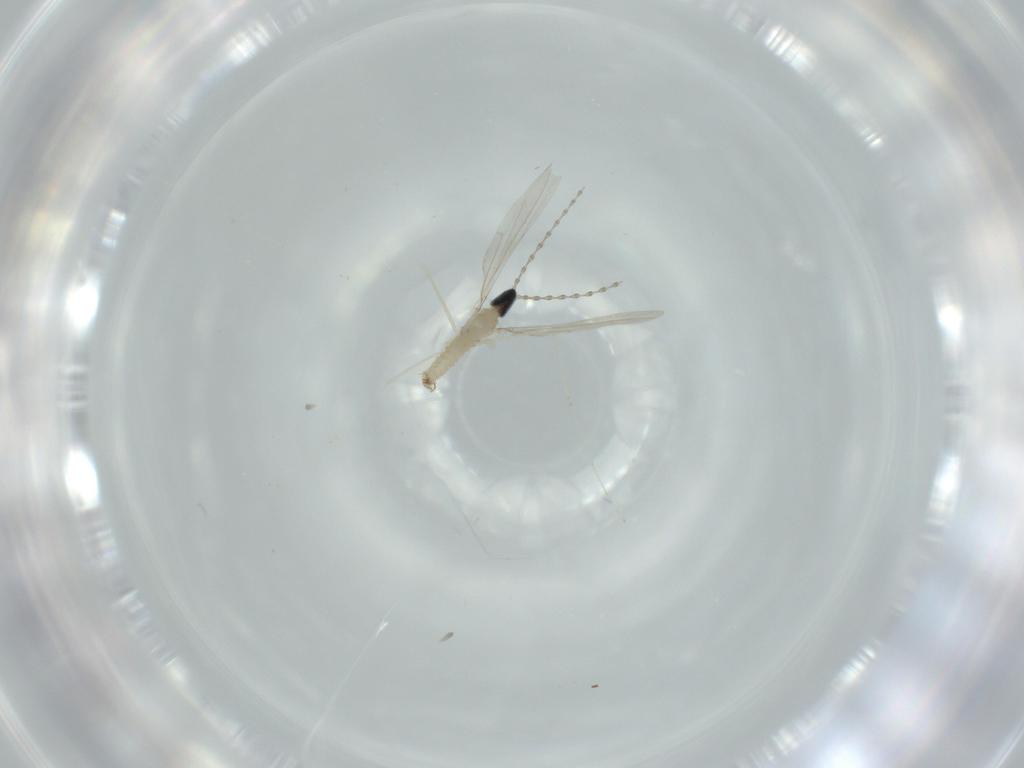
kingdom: Animalia
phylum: Arthropoda
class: Insecta
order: Diptera
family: Cecidomyiidae
